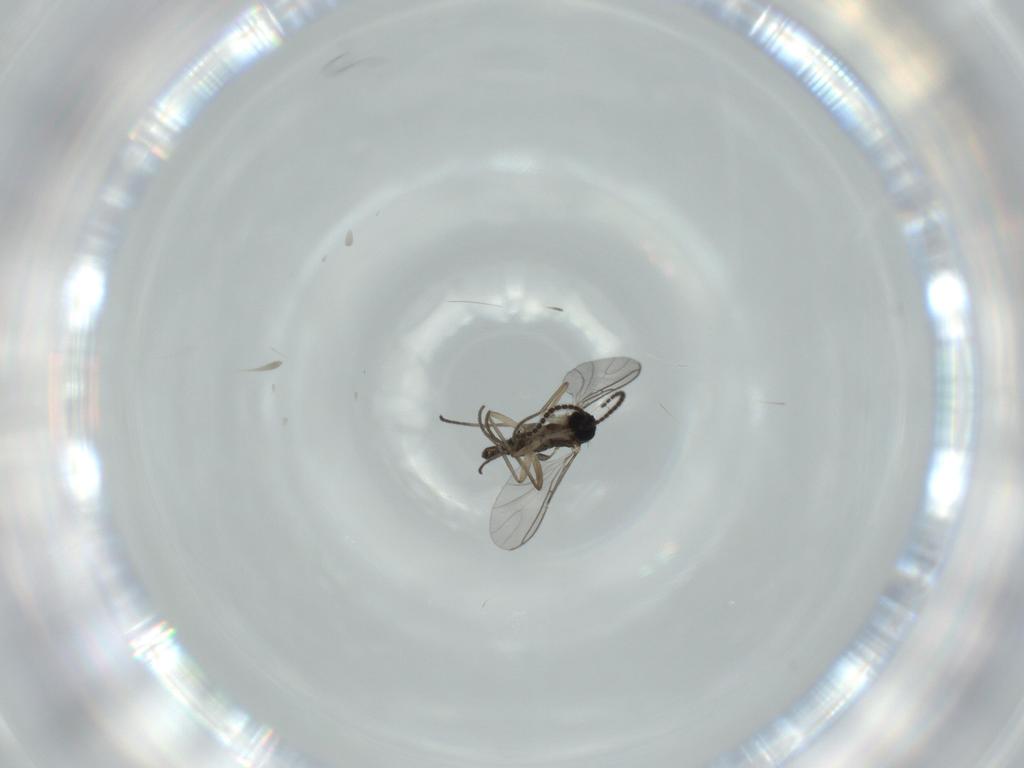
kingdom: Animalia
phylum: Arthropoda
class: Insecta
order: Diptera
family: Sciaridae
